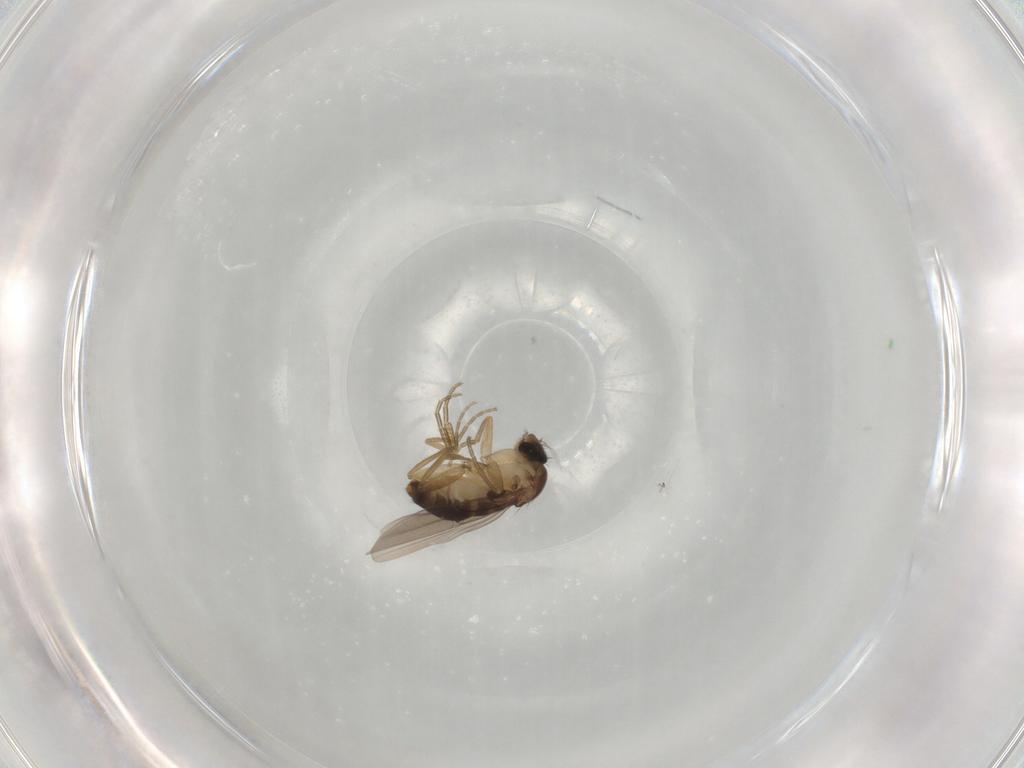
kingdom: Animalia
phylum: Arthropoda
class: Insecta
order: Diptera
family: Phoridae
